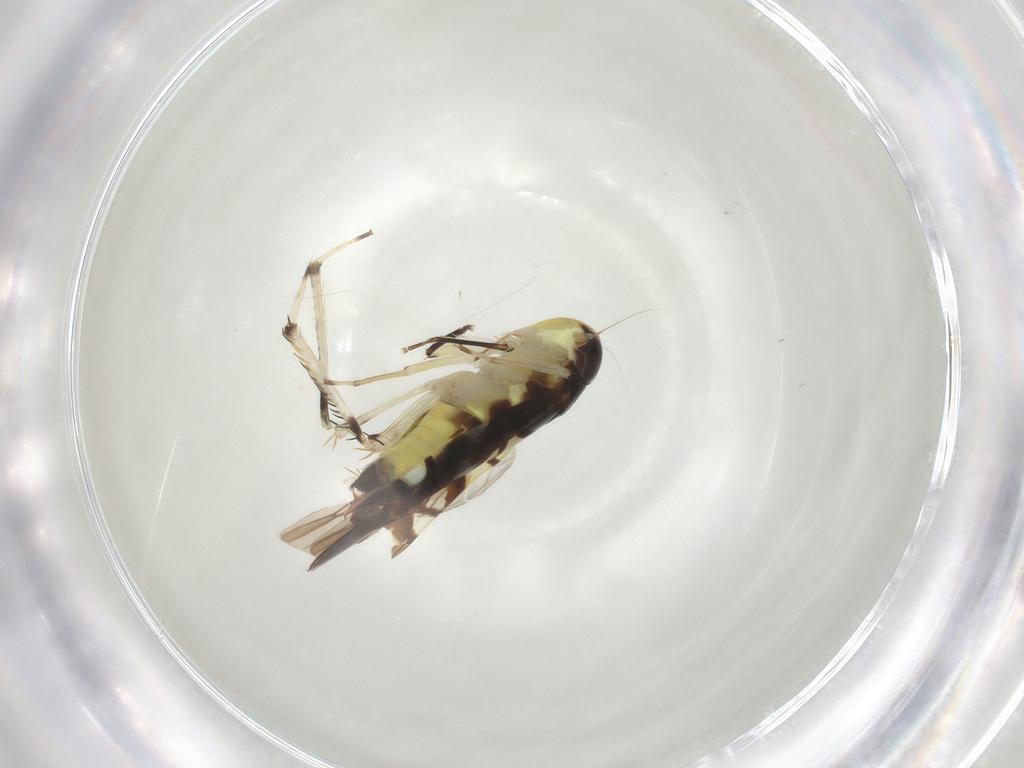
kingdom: Animalia
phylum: Arthropoda
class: Insecta
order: Hemiptera
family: Cicadellidae
